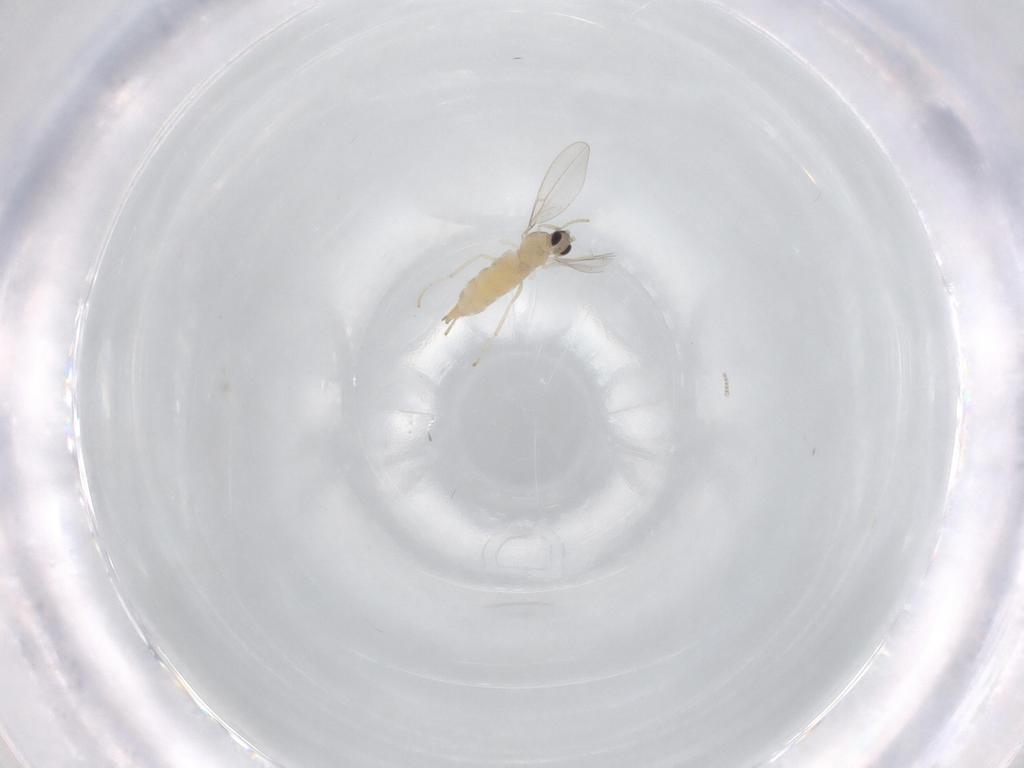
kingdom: Animalia
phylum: Arthropoda
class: Insecta
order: Diptera
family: Cecidomyiidae
